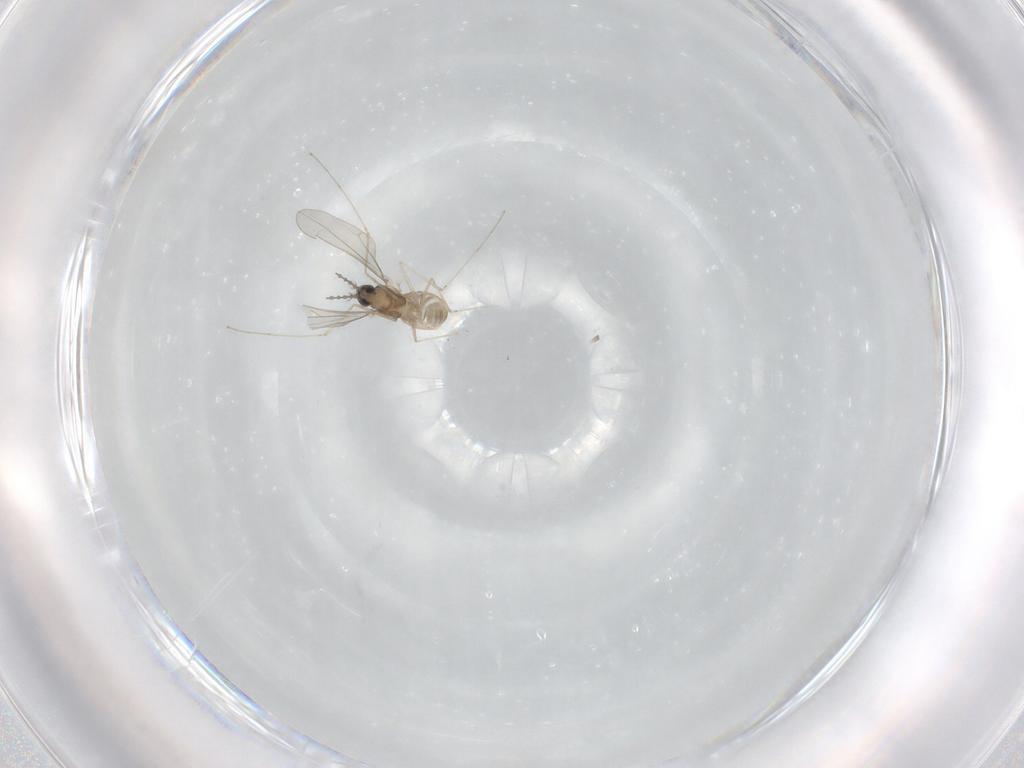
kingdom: Animalia
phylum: Arthropoda
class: Insecta
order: Diptera
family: Cecidomyiidae
